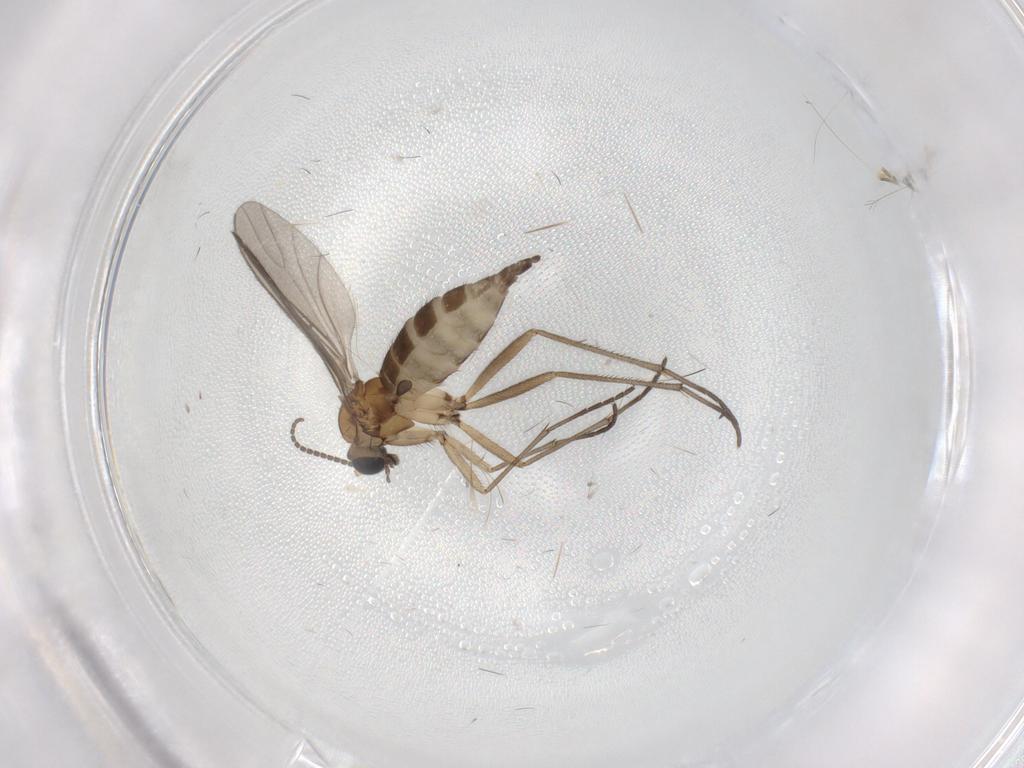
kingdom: Animalia
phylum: Arthropoda
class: Insecta
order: Diptera
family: Sciaridae
